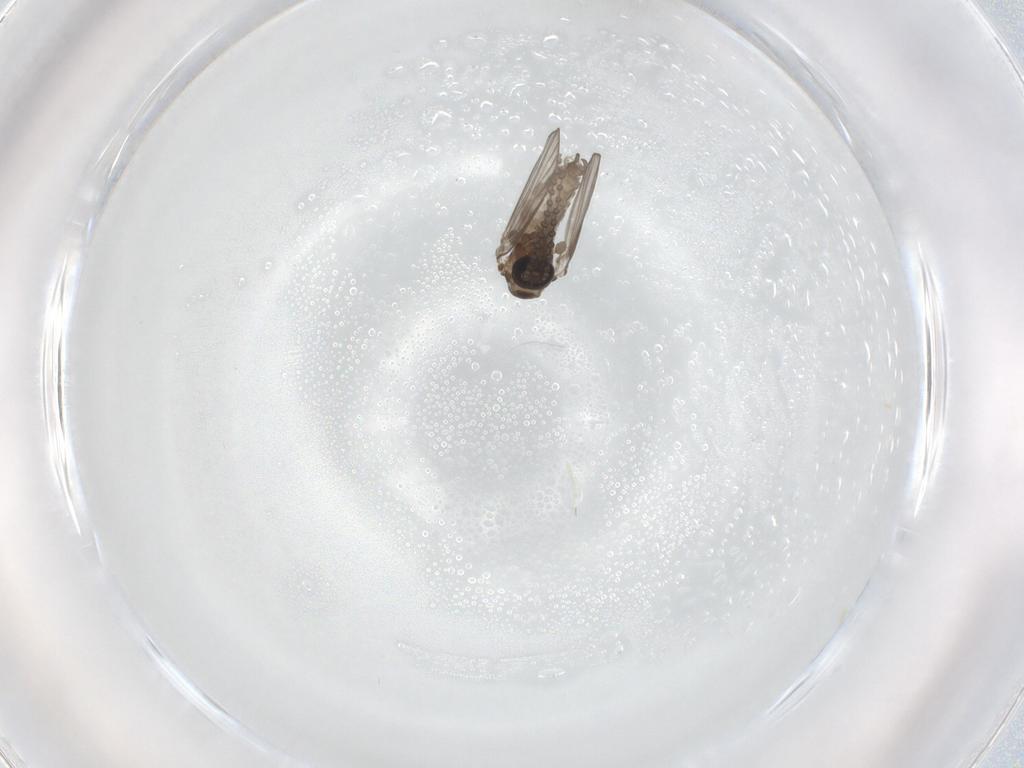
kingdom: Animalia
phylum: Arthropoda
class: Insecta
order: Diptera
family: Psychodidae
